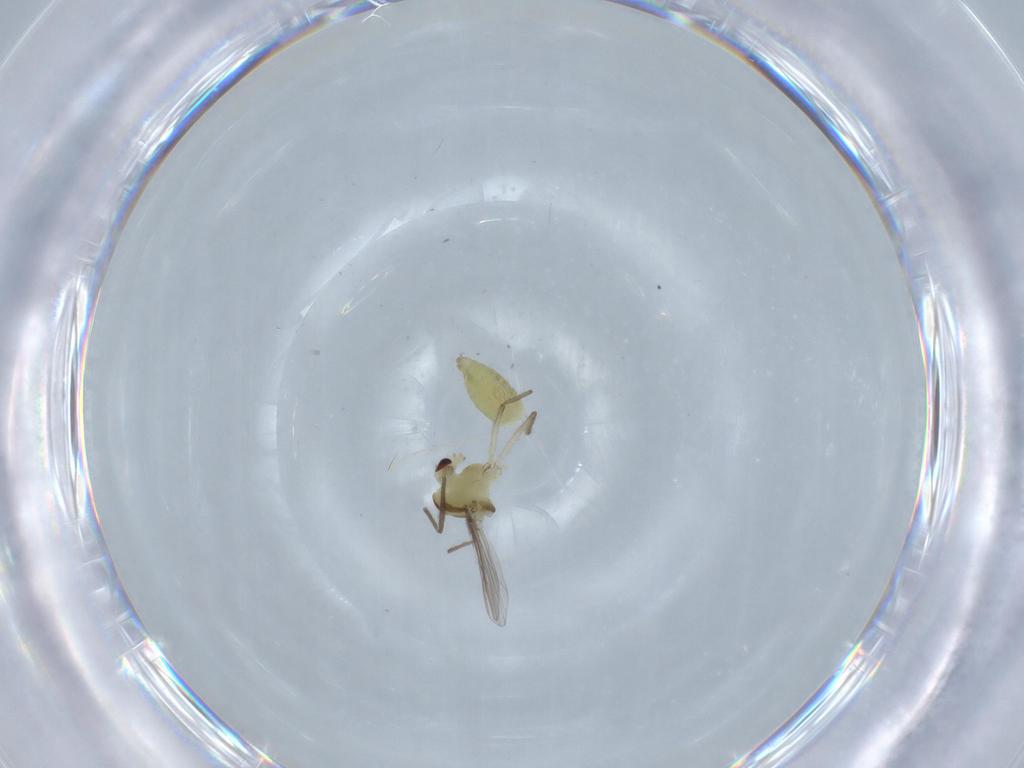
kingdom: Animalia
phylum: Arthropoda
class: Insecta
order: Diptera
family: Chironomidae
